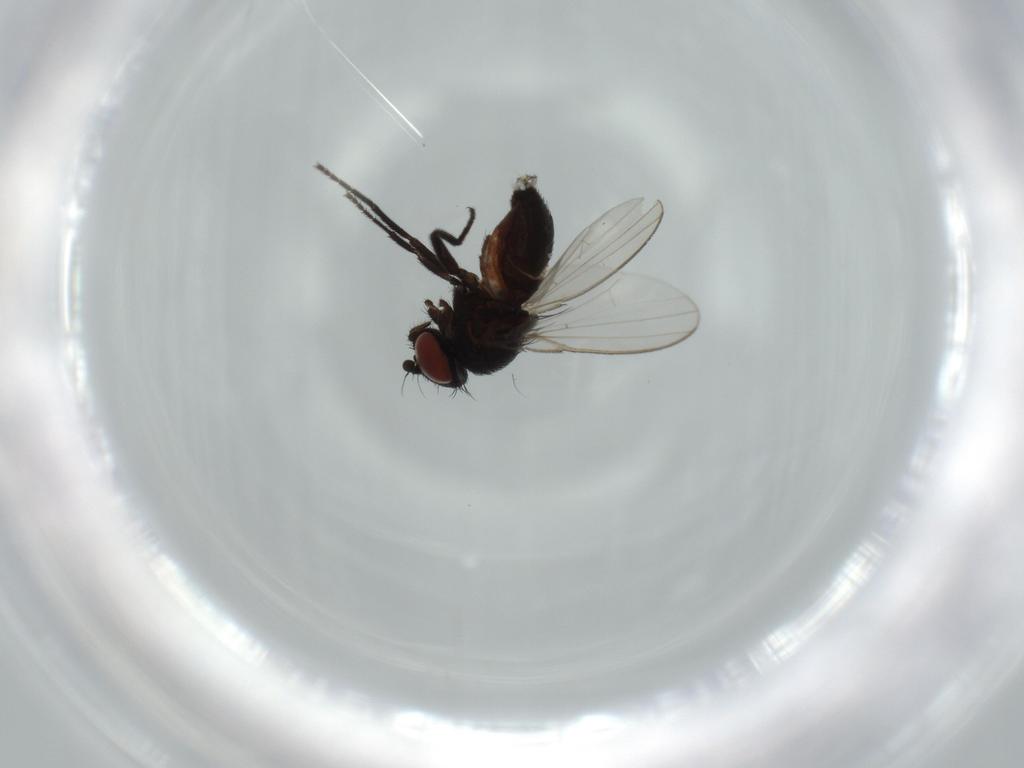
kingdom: Animalia
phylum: Arthropoda
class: Insecta
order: Diptera
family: Milichiidae
